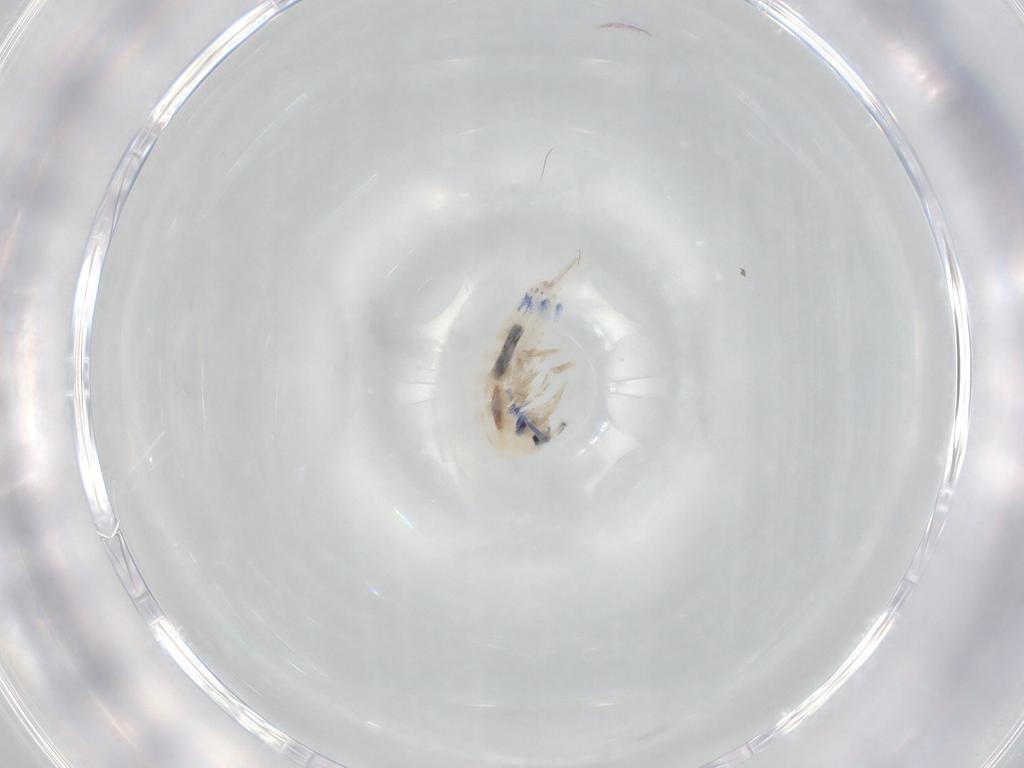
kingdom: Animalia
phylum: Arthropoda
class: Collembola
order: Entomobryomorpha
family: Entomobryidae
